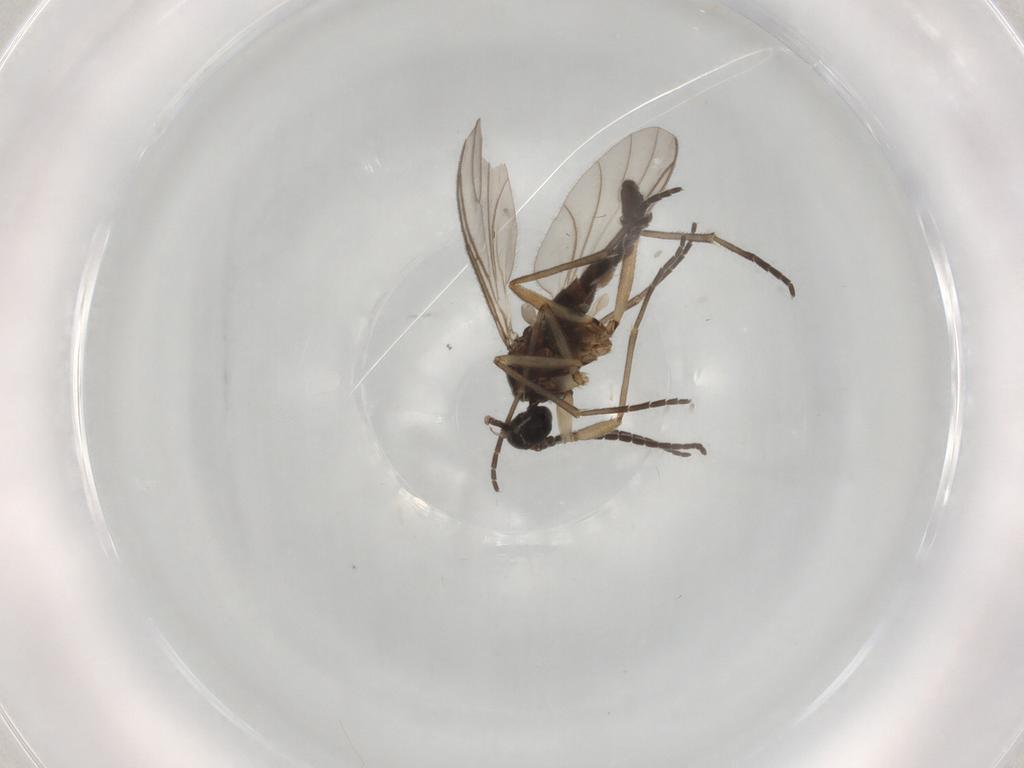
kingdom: Animalia
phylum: Arthropoda
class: Insecta
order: Diptera
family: Sciaridae
